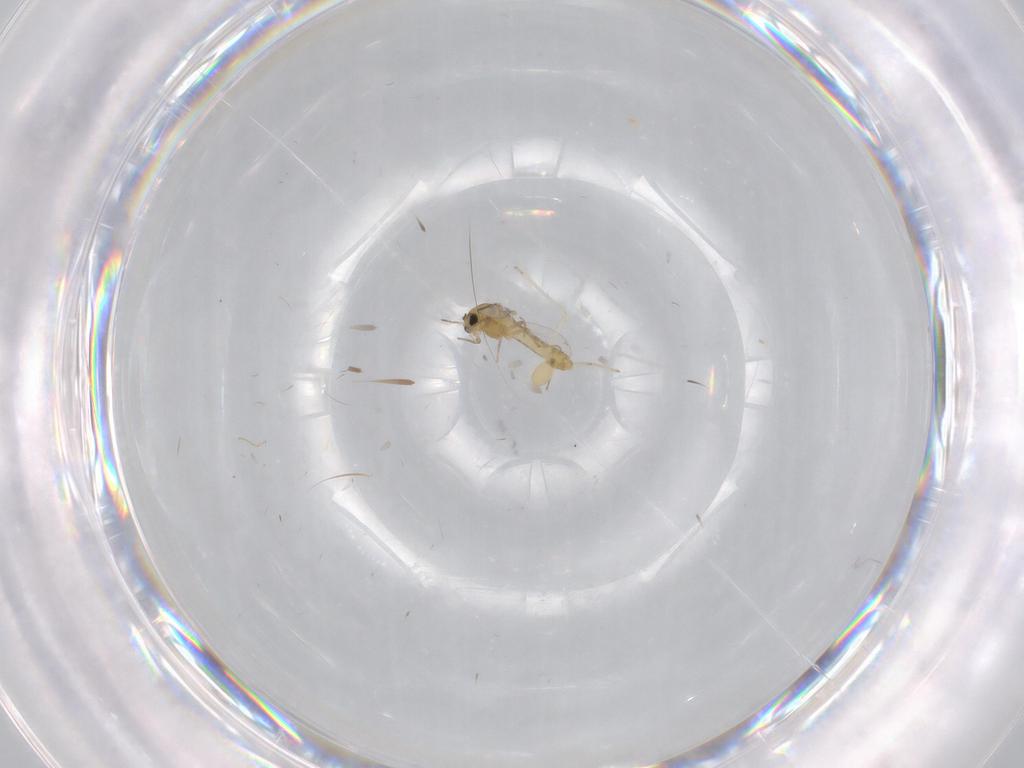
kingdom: Animalia
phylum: Arthropoda
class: Insecta
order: Diptera
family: Chironomidae
